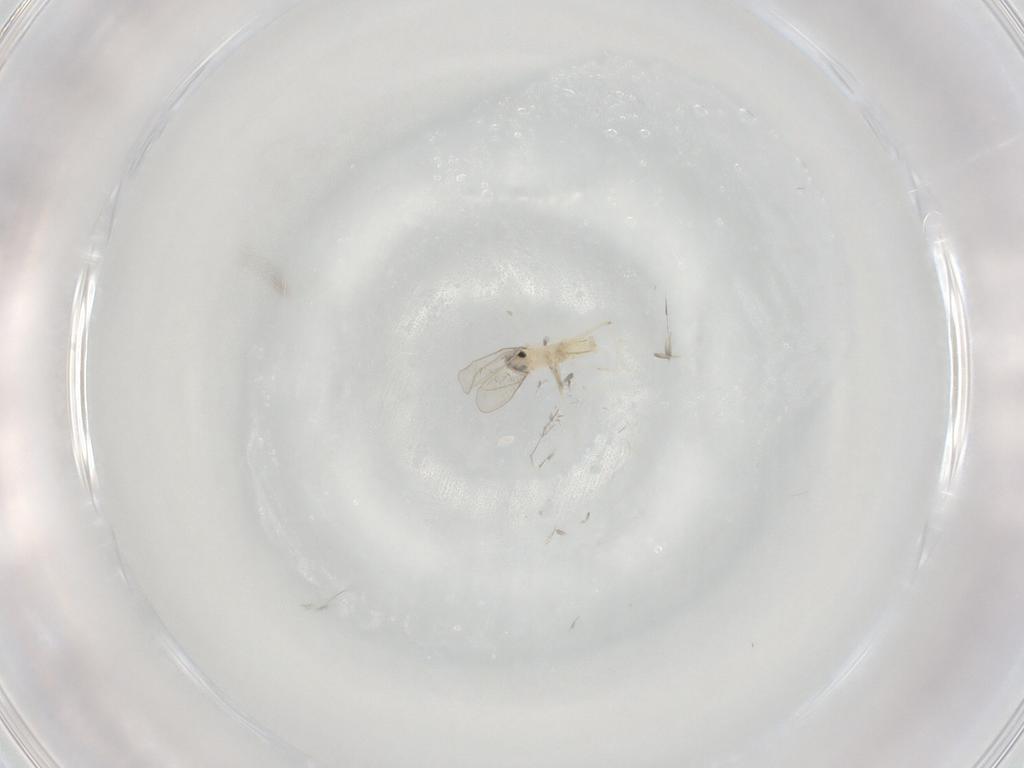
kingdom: Animalia
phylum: Arthropoda
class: Insecta
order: Diptera
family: Cecidomyiidae
